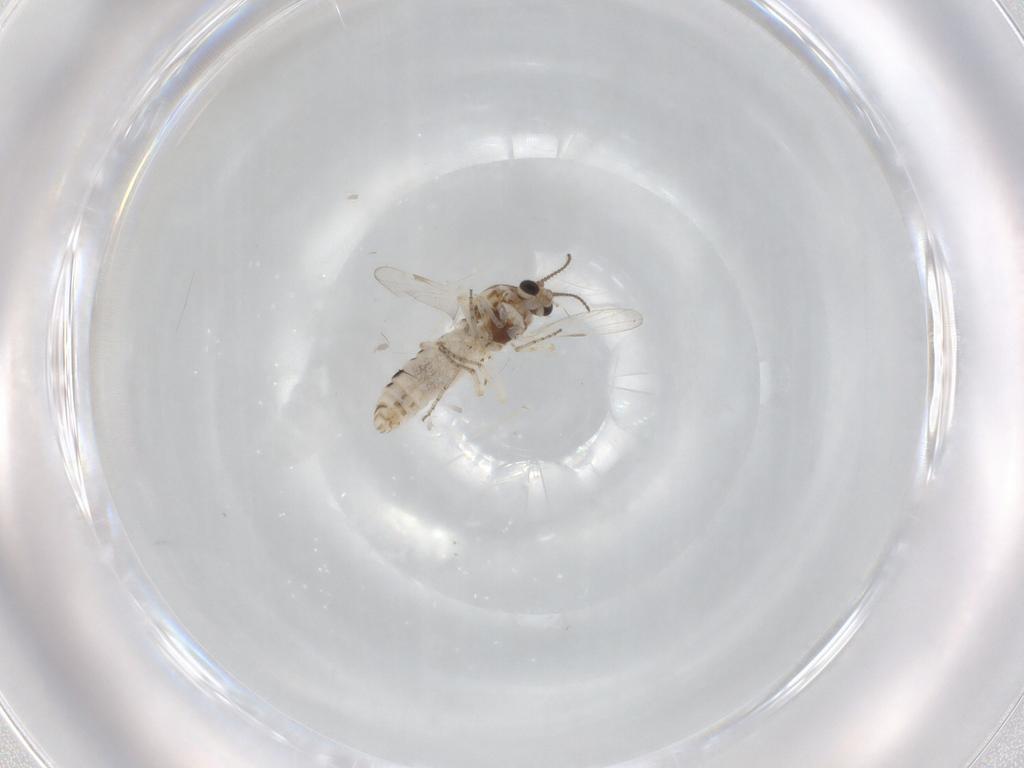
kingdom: Animalia
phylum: Arthropoda
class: Insecta
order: Diptera
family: Ceratopogonidae
